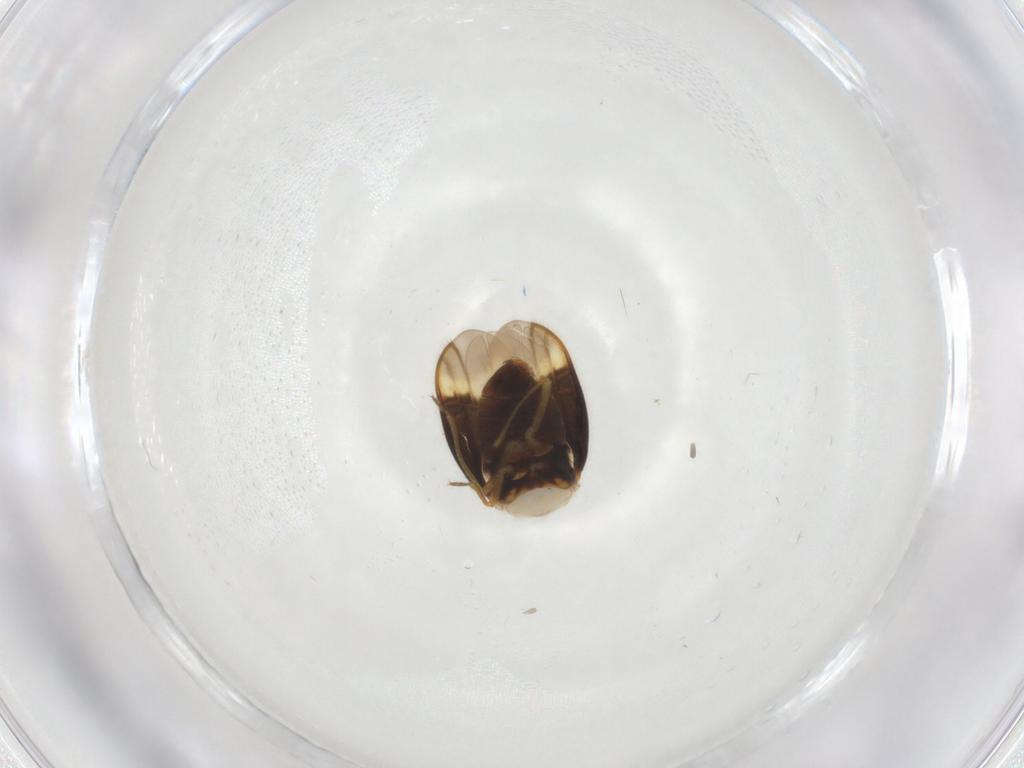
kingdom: Animalia
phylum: Arthropoda
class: Insecta
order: Hemiptera
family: Schizopteridae
